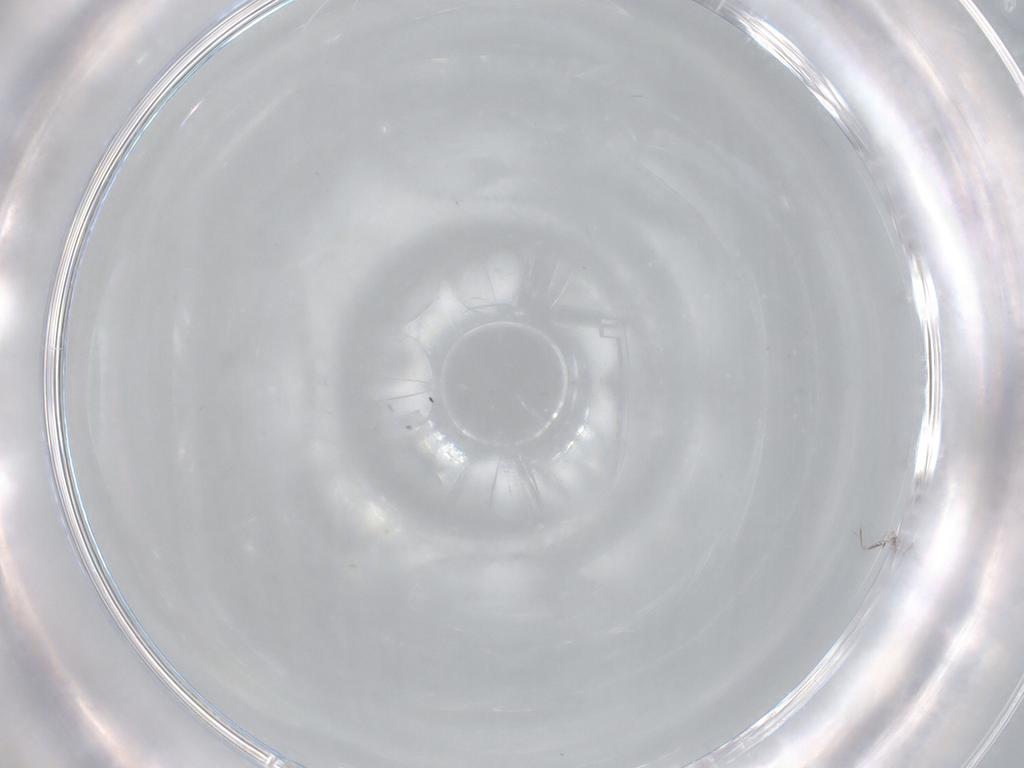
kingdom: Animalia
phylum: Arthropoda
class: Insecta
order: Diptera
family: Cecidomyiidae
